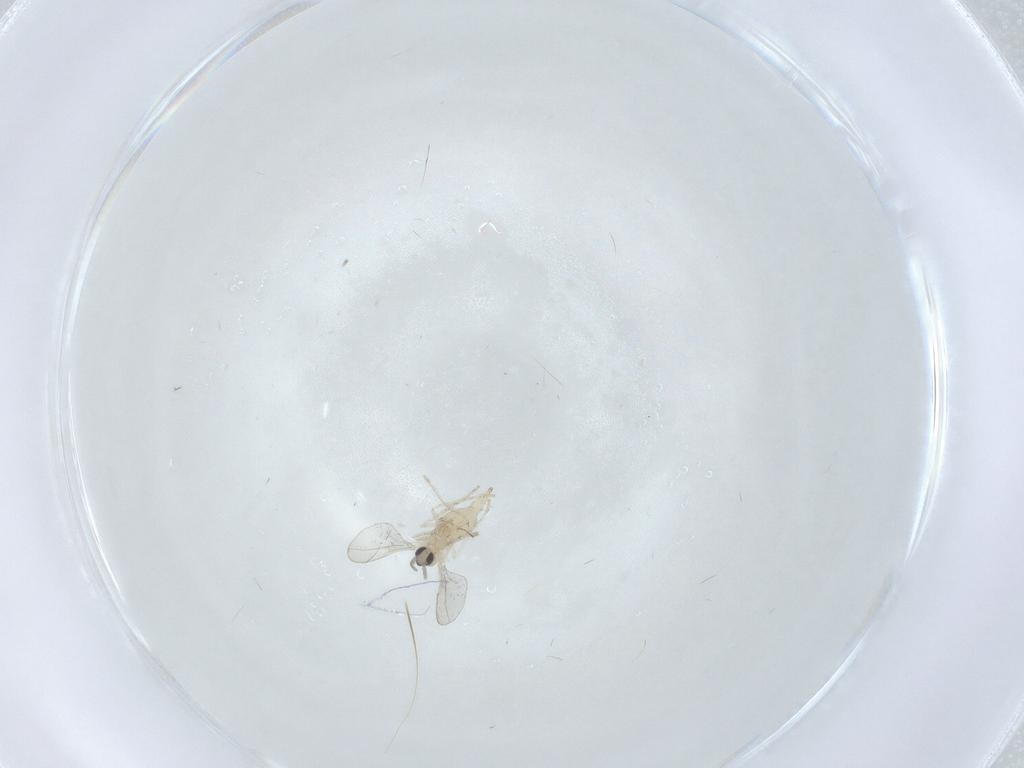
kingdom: Animalia
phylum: Arthropoda
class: Insecta
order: Diptera
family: Cecidomyiidae
